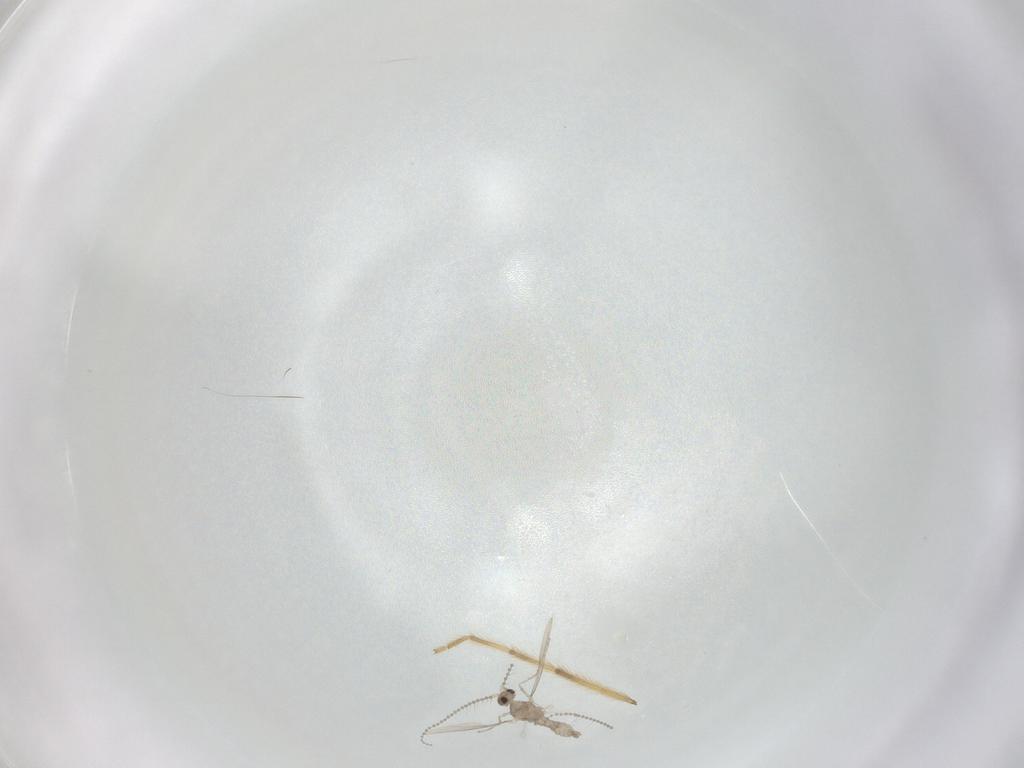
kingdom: Animalia
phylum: Arthropoda
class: Insecta
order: Diptera
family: Cecidomyiidae
